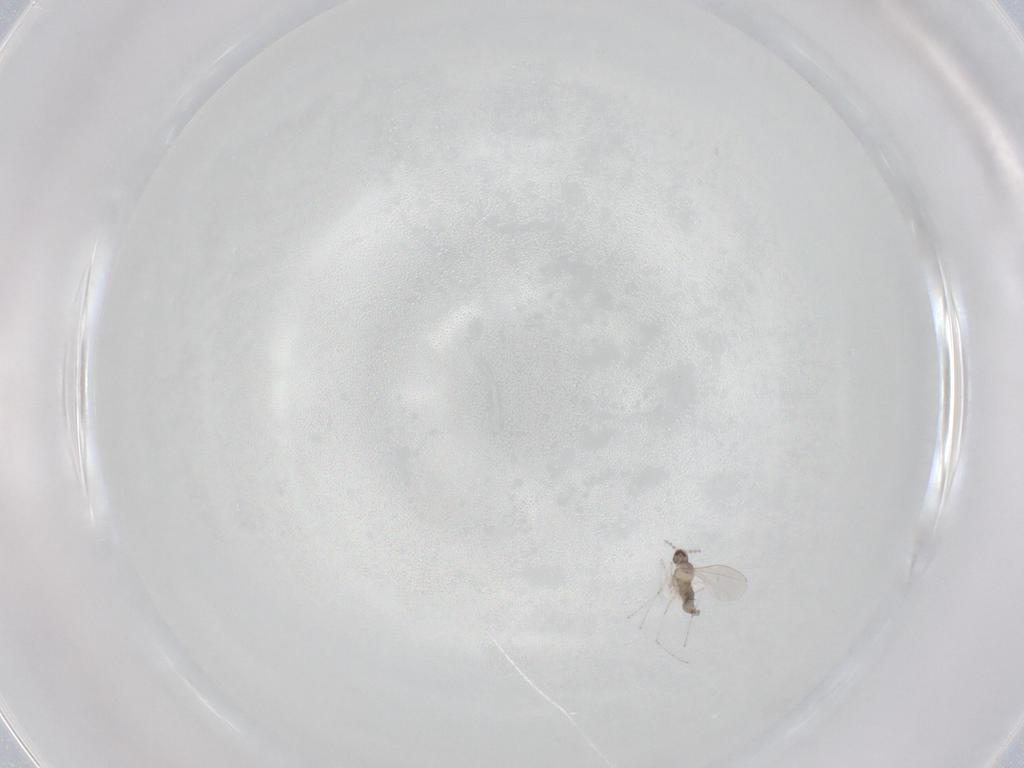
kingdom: Animalia
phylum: Arthropoda
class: Insecta
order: Diptera
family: Cecidomyiidae
